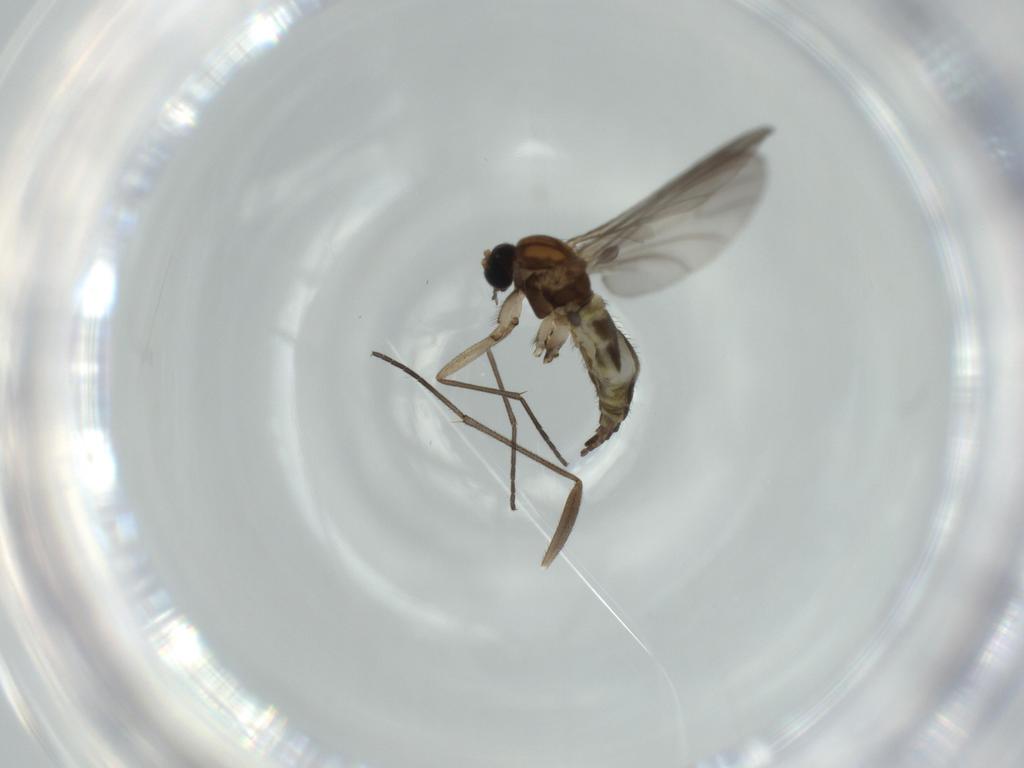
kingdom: Animalia
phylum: Arthropoda
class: Insecta
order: Diptera
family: Sciaridae
